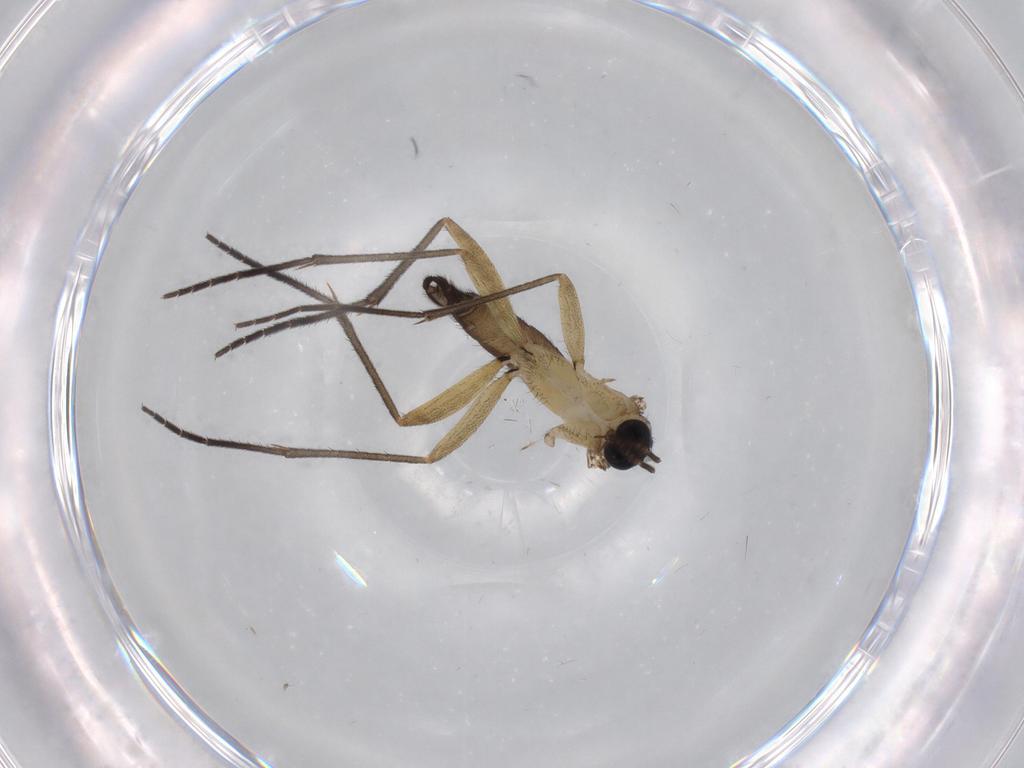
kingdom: Animalia
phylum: Arthropoda
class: Insecta
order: Diptera
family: Sciaridae
